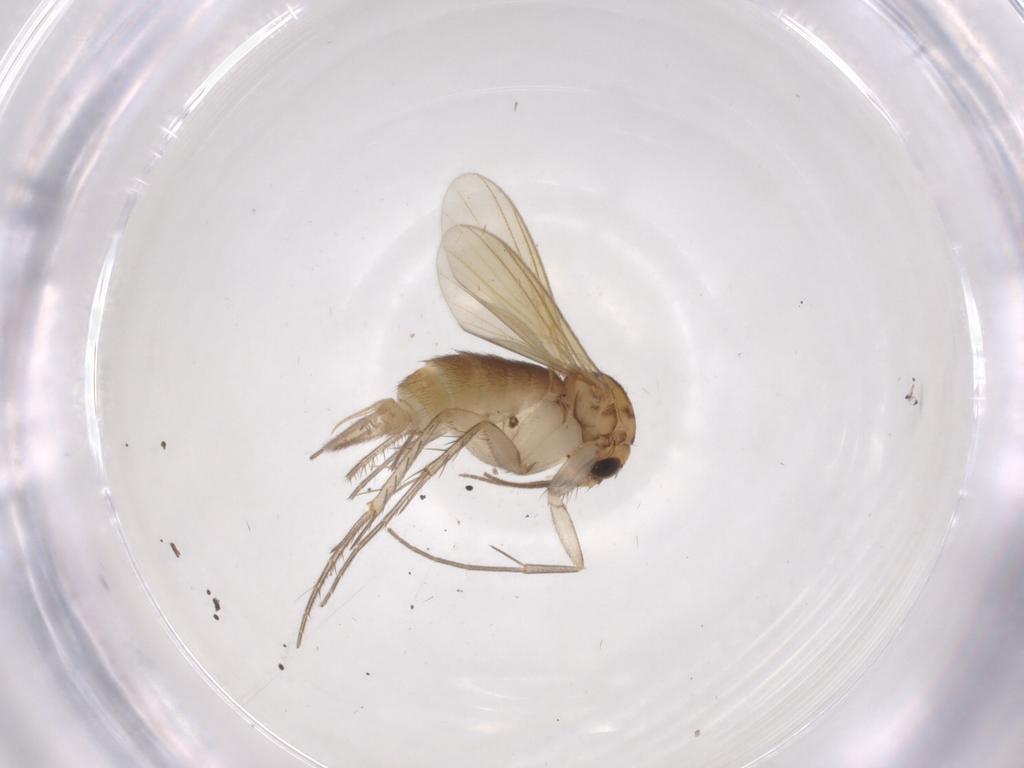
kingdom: Animalia
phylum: Arthropoda
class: Insecta
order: Diptera
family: Mycetophilidae
